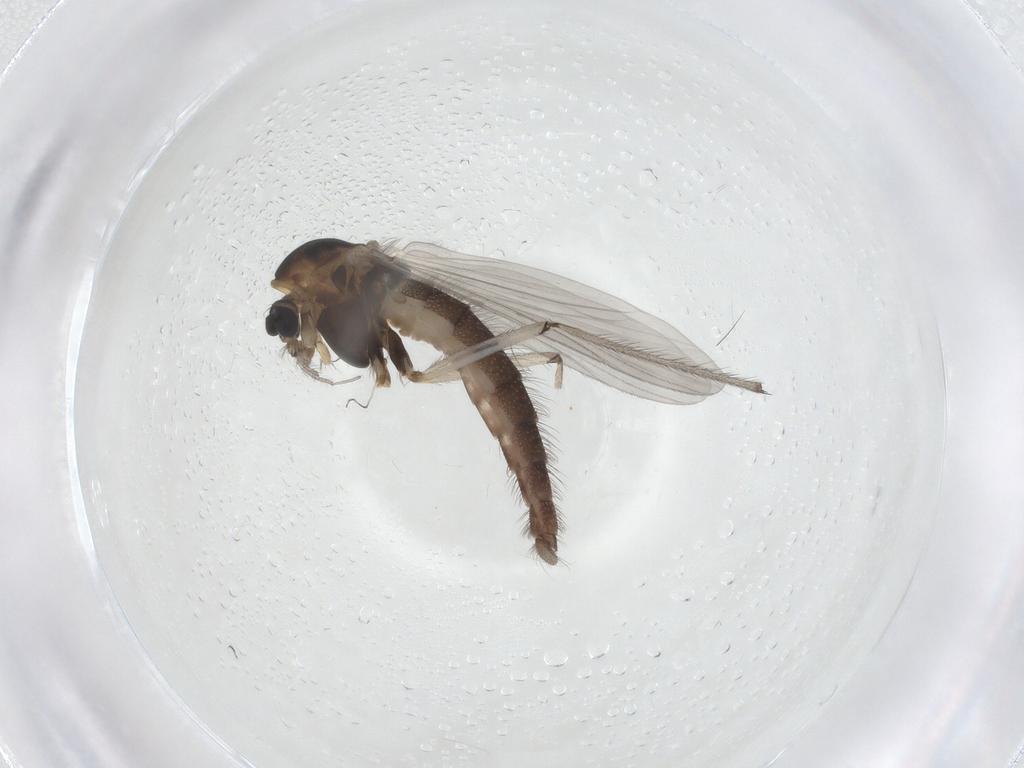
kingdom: Animalia
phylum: Arthropoda
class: Insecta
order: Diptera
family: Chironomidae
